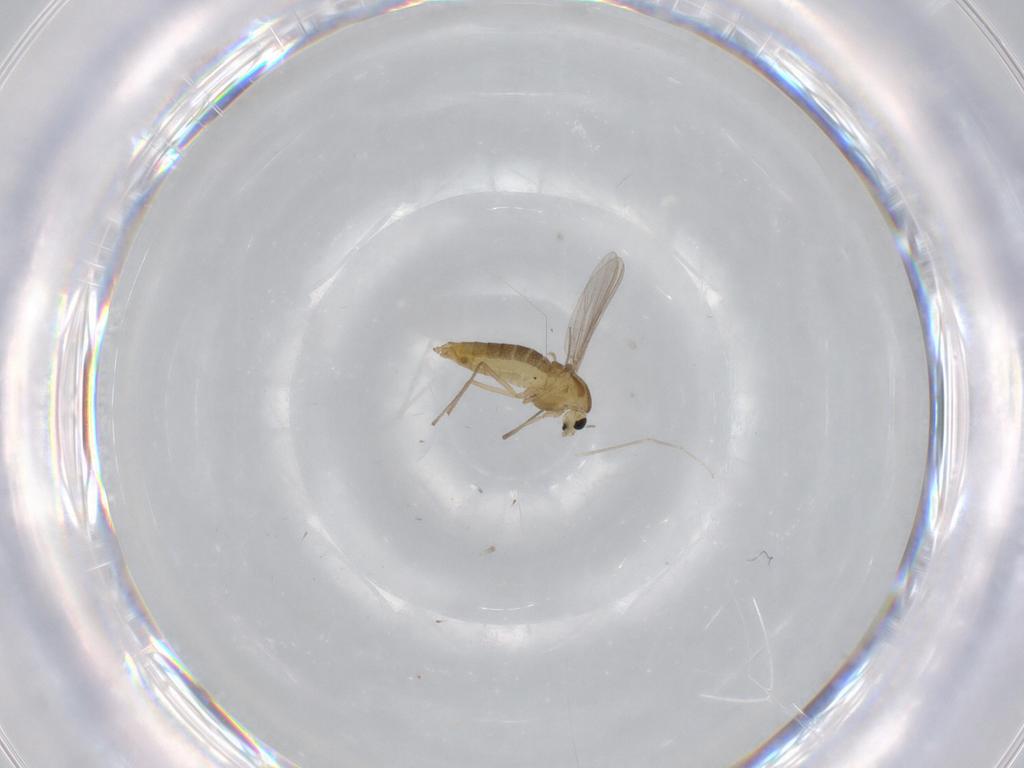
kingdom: Animalia
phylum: Arthropoda
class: Insecta
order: Diptera
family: Chironomidae
